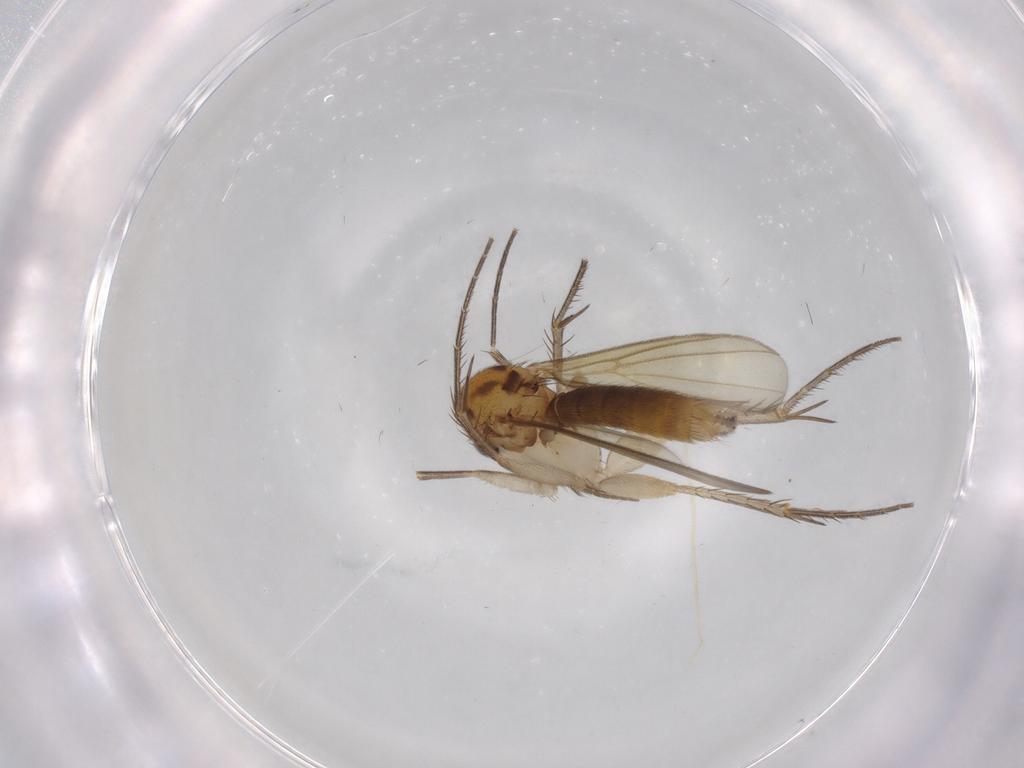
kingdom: Animalia
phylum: Arthropoda
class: Insecta
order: Diptera
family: Mycetophilidae
